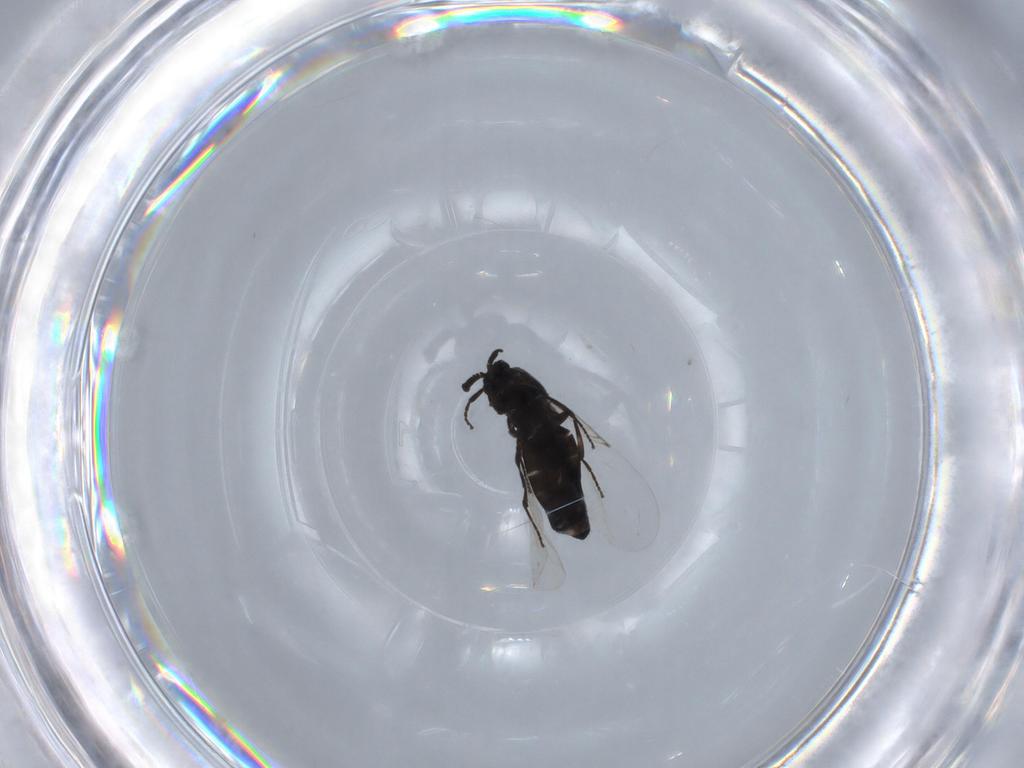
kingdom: Animalia
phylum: Arthropoda
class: Insecta
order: Diptera
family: Scatopsidae
